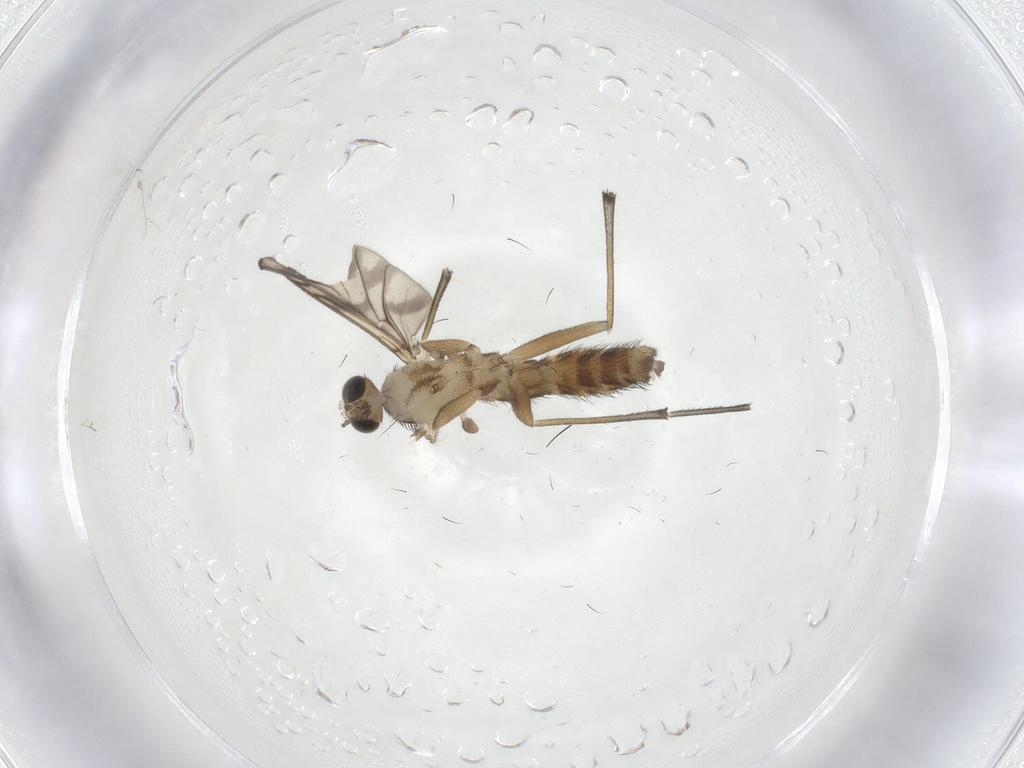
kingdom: Animalia
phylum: Arthropoda
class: Insecta
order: Diptera
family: Keroplatidae
